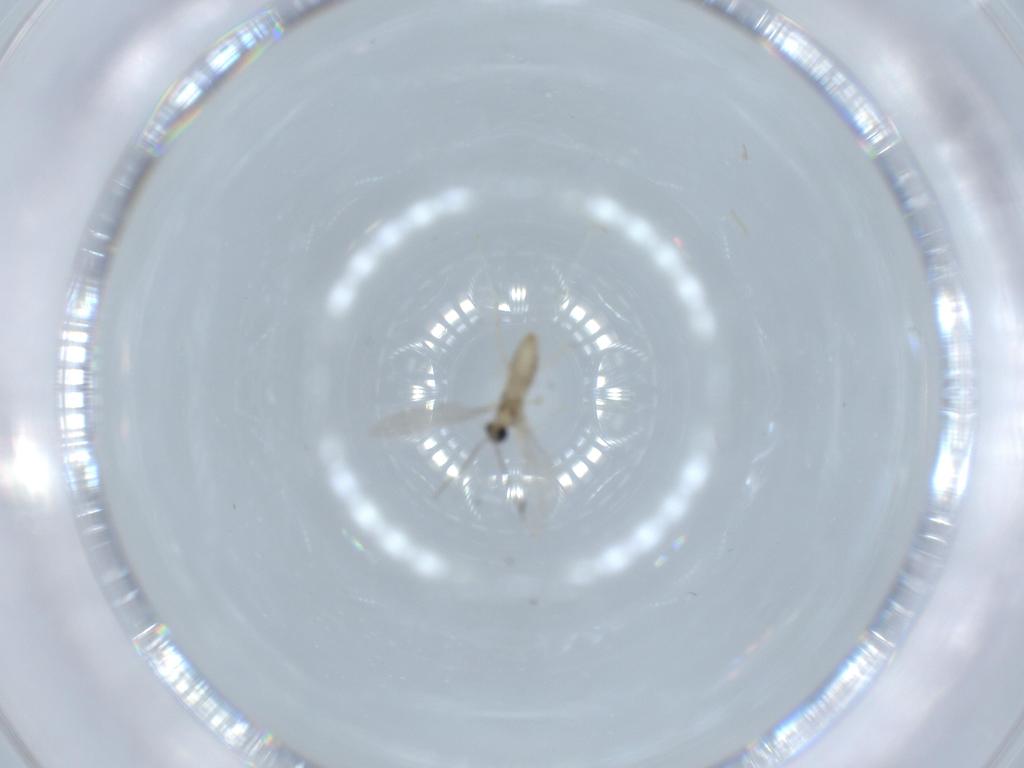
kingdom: Animalia
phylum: Arthropoda
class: Insecta
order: Diptera
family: Cecidomyiidae
